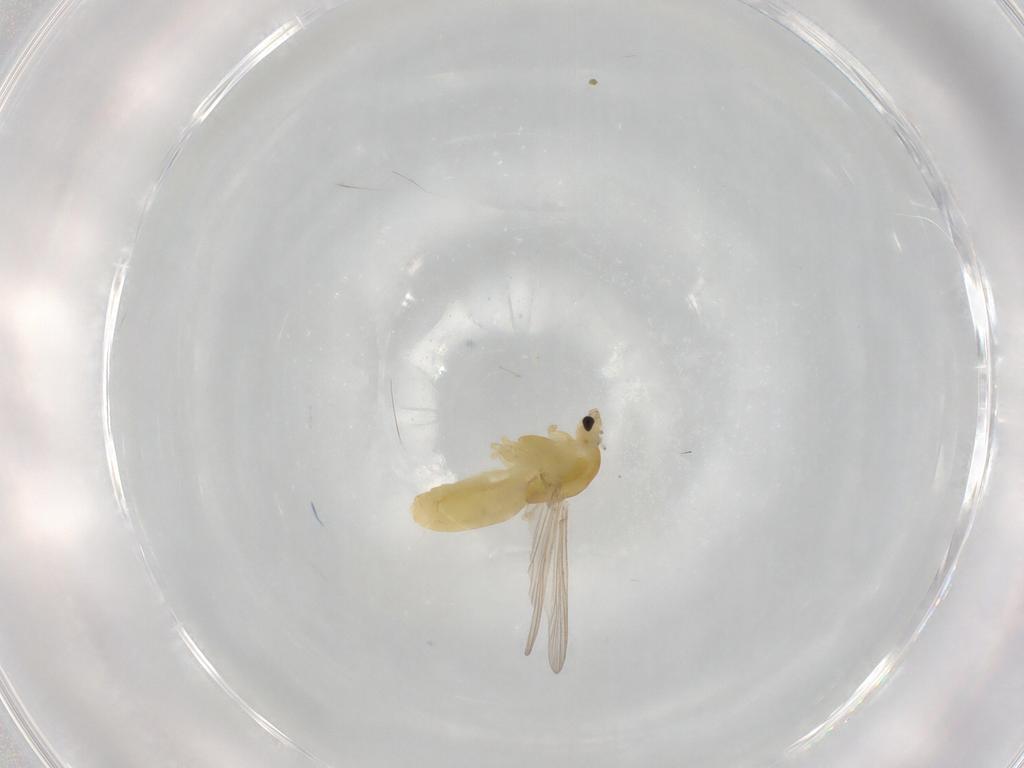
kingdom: Animalia
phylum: Arthropoda
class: Insecta
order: Diptera
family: Chironomidae
